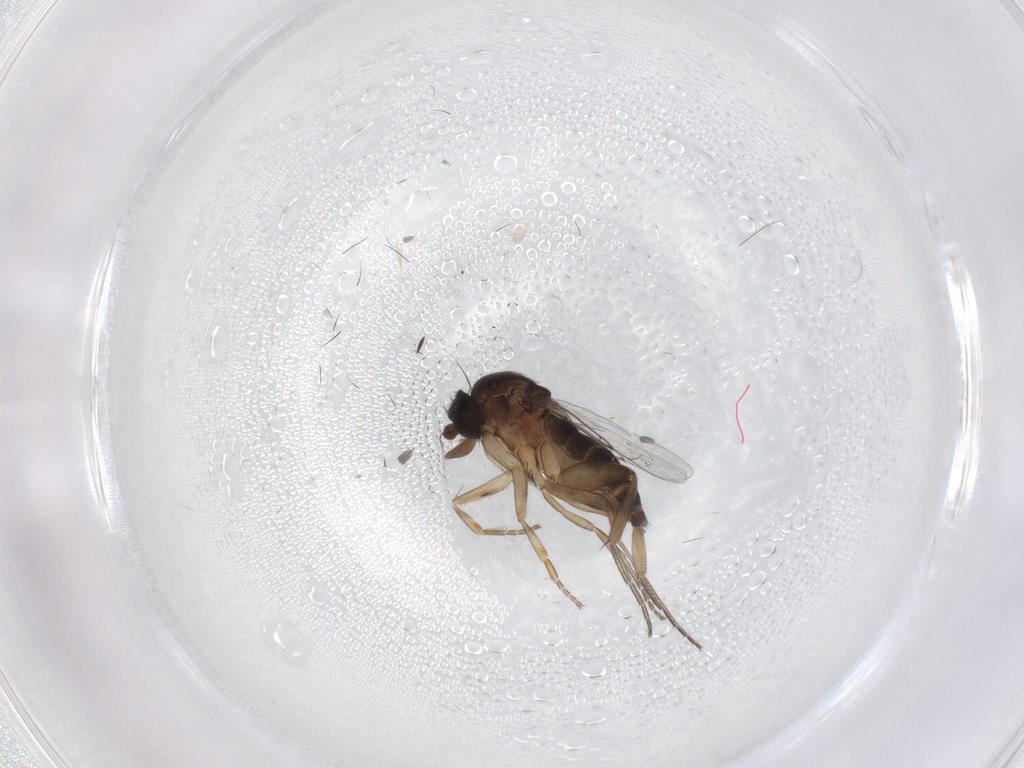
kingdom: Animalia
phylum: Arthropoda
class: Insecta
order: Diptera
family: Phoridae
